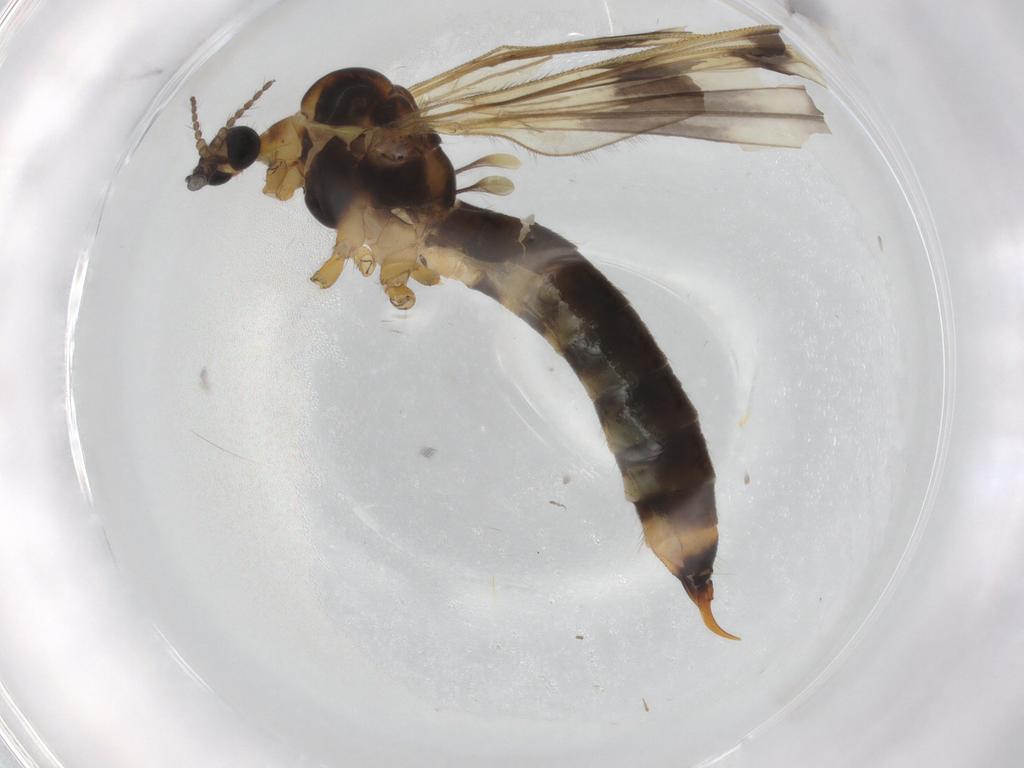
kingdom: Animalia
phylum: Arthropoda
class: Insecta
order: Diptera
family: Limoniidae
